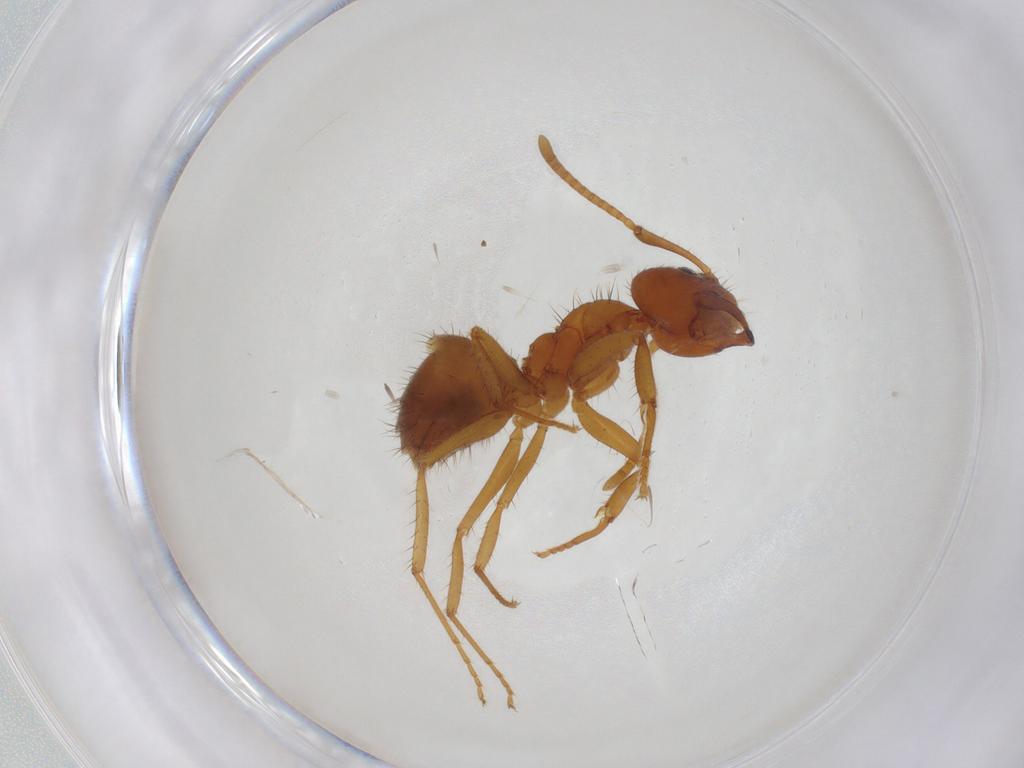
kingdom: Animalia
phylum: Arthropoda
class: Insecta
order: Hymenoptera
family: Formicidae
